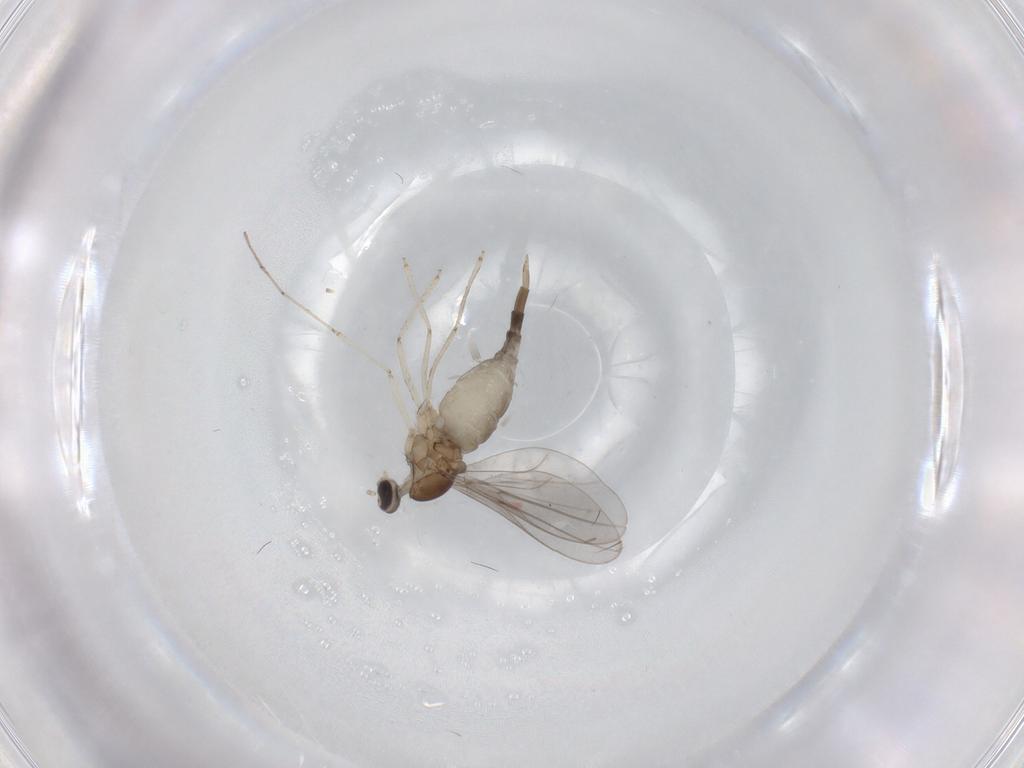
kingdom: Animalia
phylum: Arthropoda
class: Insecta
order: Diptera
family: Cecidomyiidae
